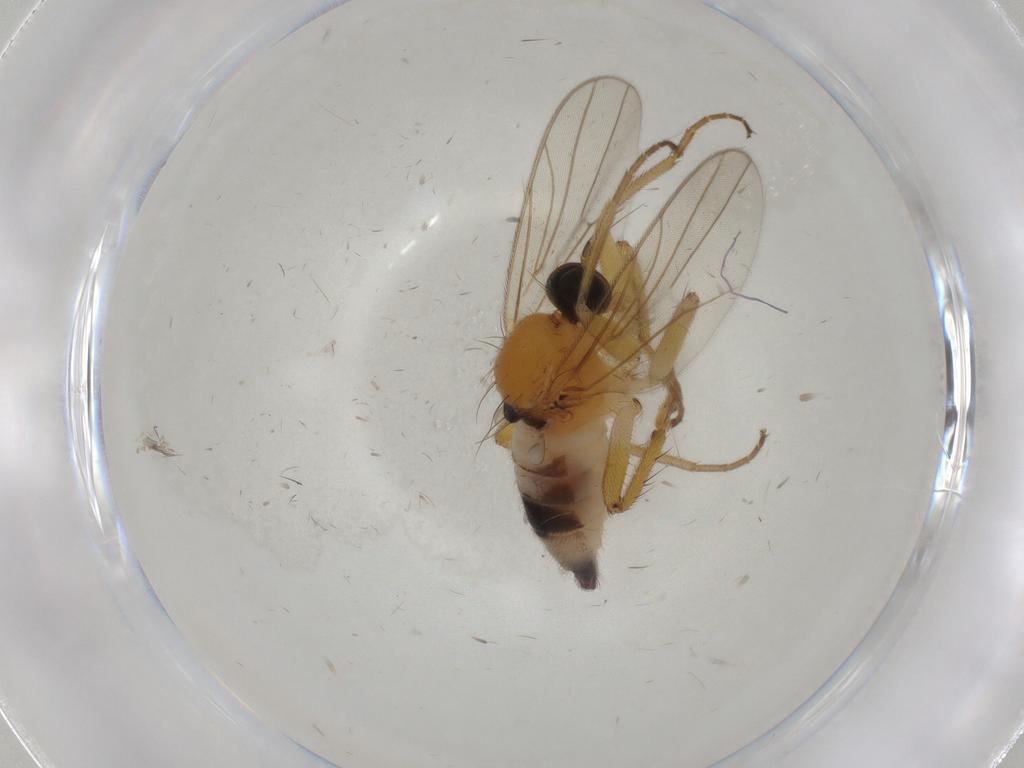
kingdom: Animalia
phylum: Arthropoda
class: Insecta
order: Diptera
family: Hybotidae
